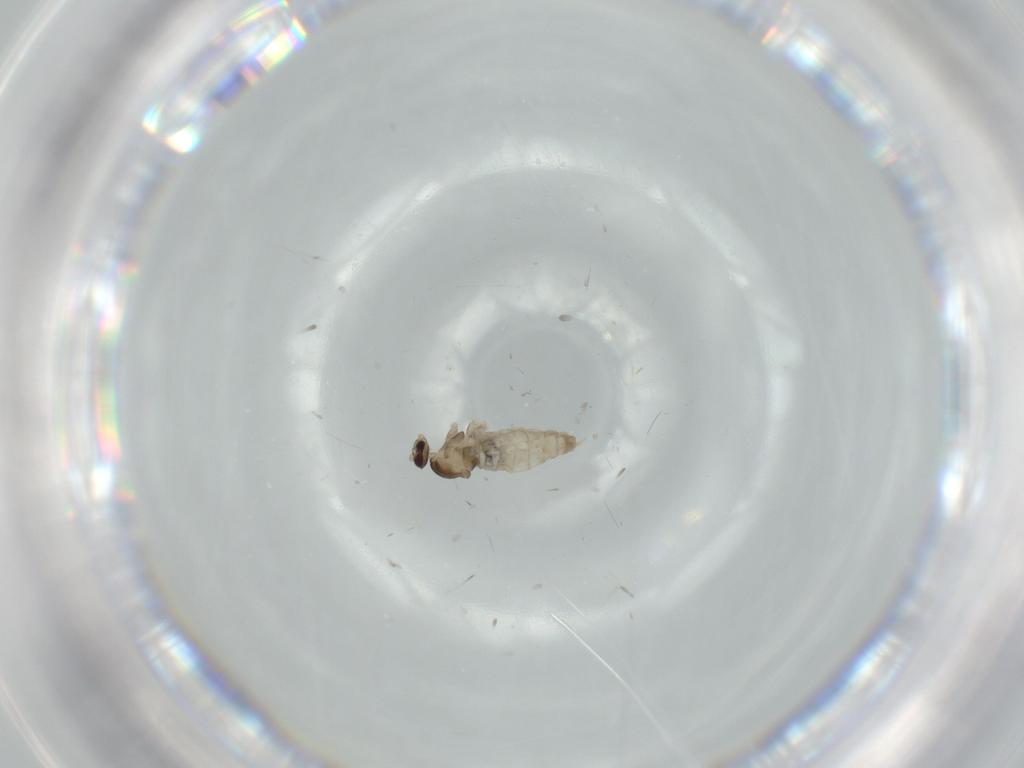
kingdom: Animalia
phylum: Arthropoda
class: Insecta
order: Diptera
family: Cecidomyiidae
